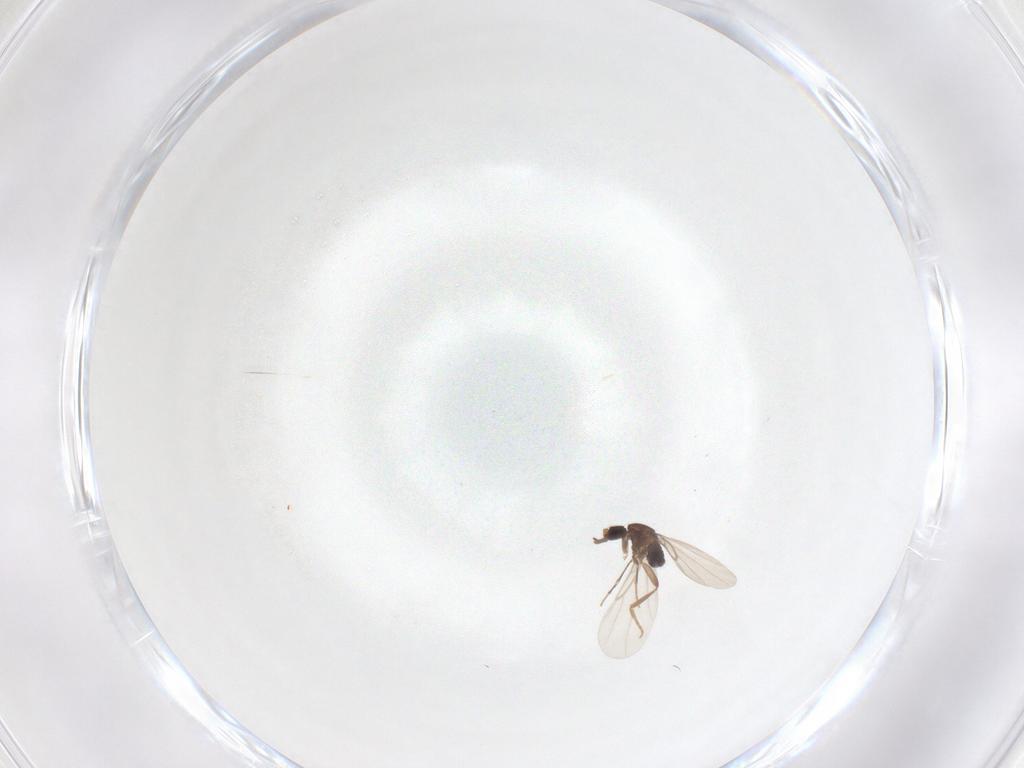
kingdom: Animalia
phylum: Arthropoda
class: Insecta
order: Diptera
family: Phoridae
